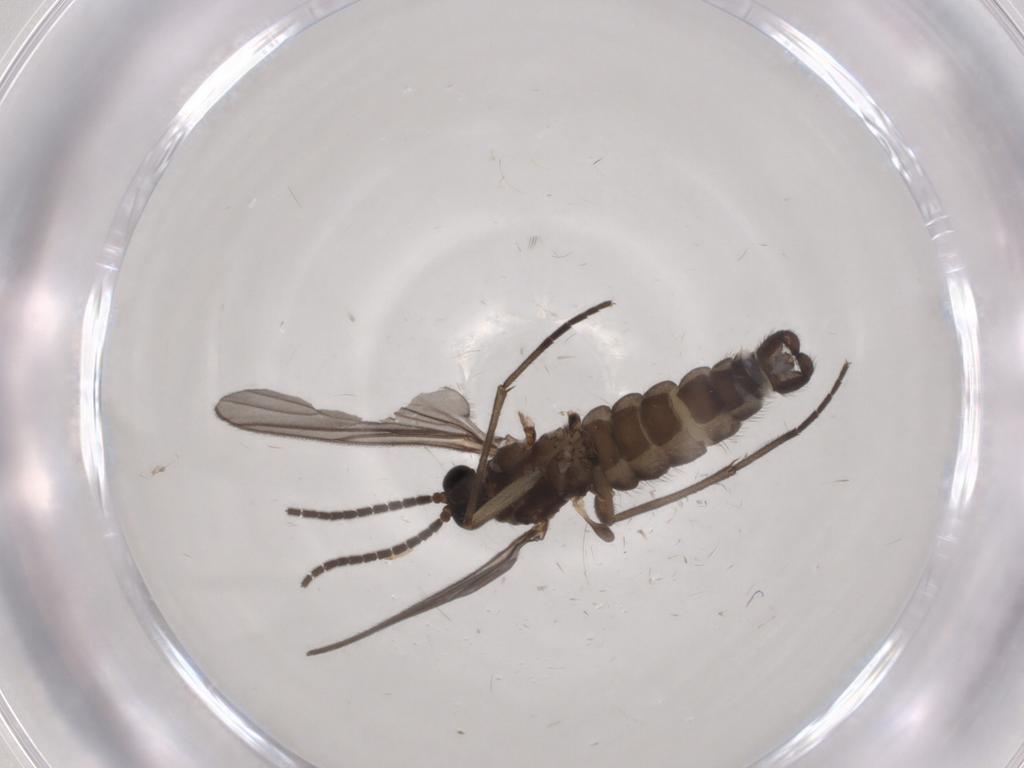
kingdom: Animalia
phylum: Arthropoda
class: Insecta
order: Diptera
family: Sciaridae
